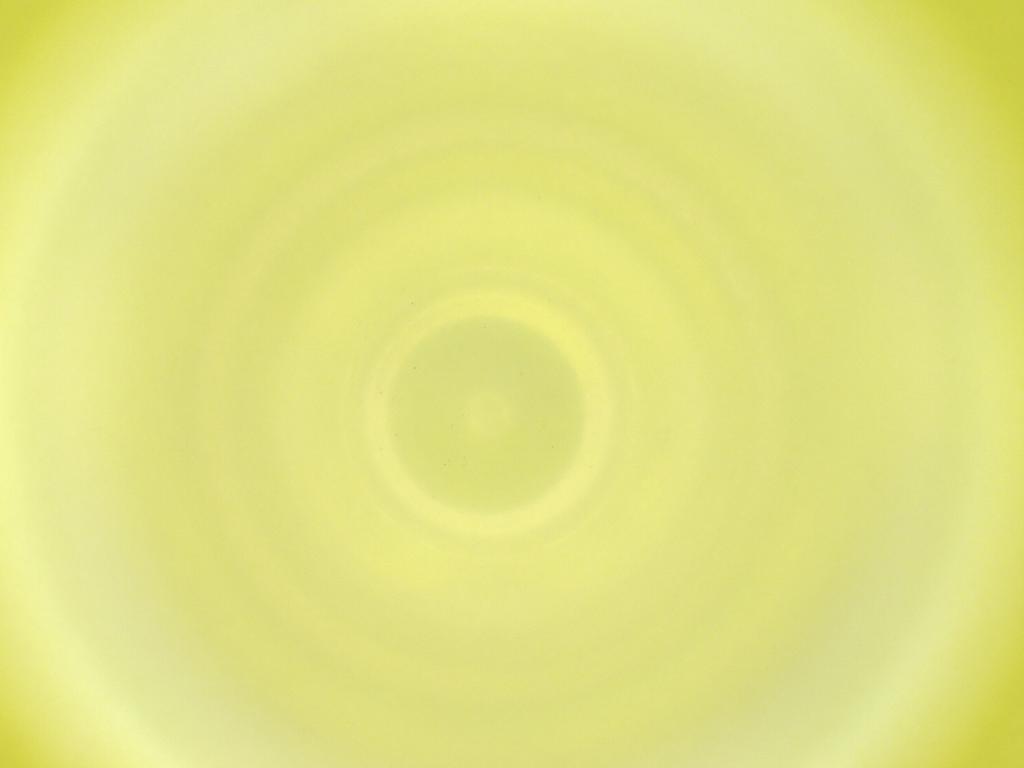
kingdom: Animalia
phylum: Arthropoda
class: Insecta
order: Diptera
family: Cecidomyiidae
